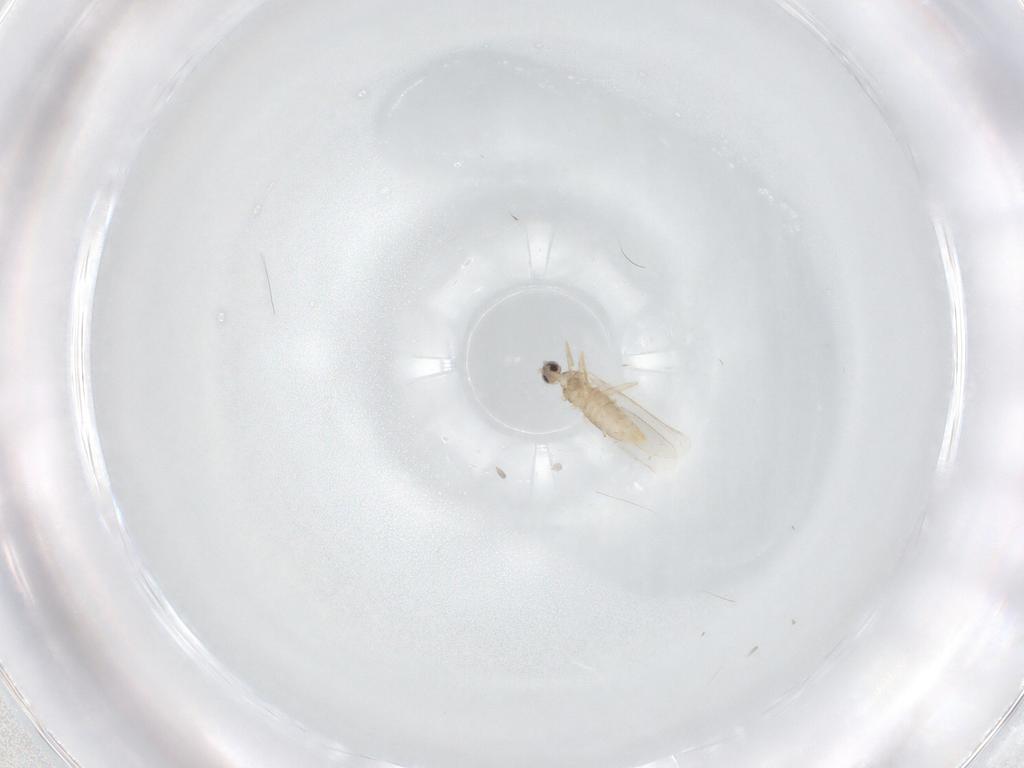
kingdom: Animalia
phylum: Arthropoda
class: Insecta
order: Diptera
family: Cecidomyiidae
